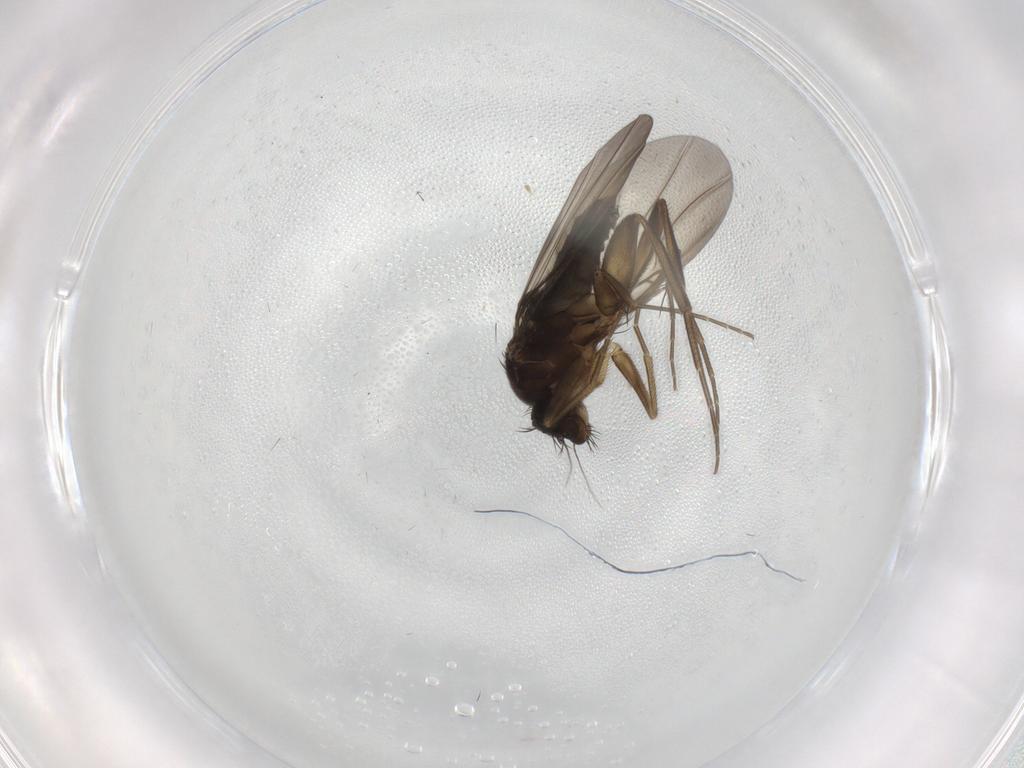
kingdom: Animalia
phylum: Arthropoda
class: Insecta
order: Diptera
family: Phoridae
